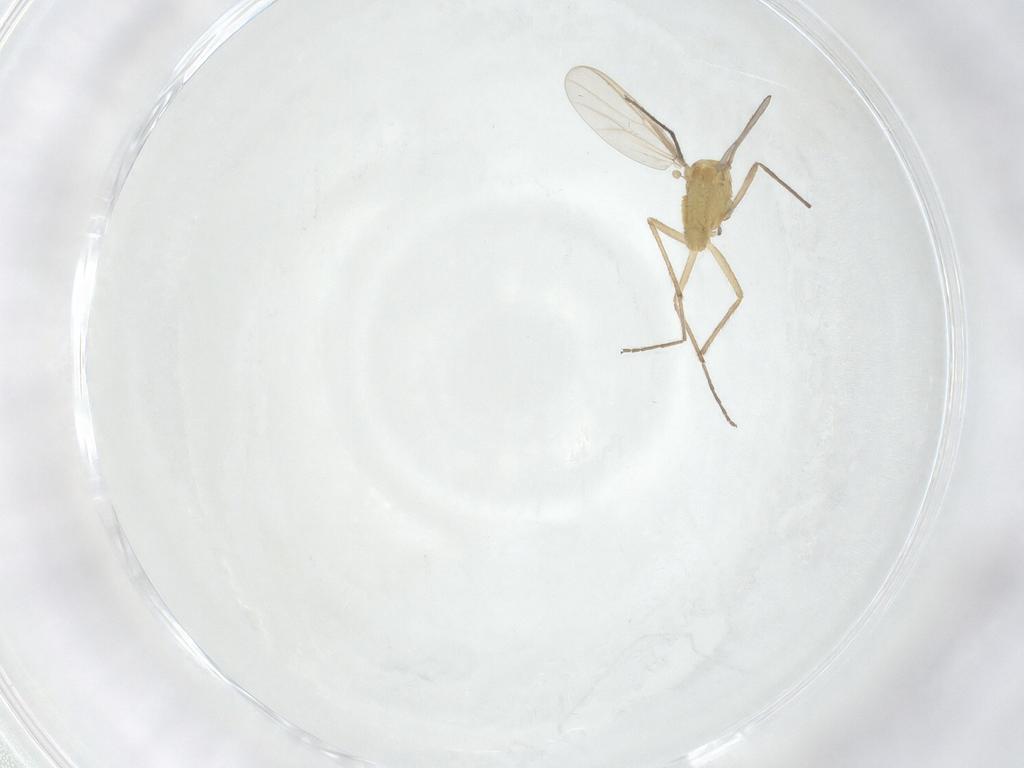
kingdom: Animalia
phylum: Arthropoda
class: Insecta
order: Diptera
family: Chironomidae
